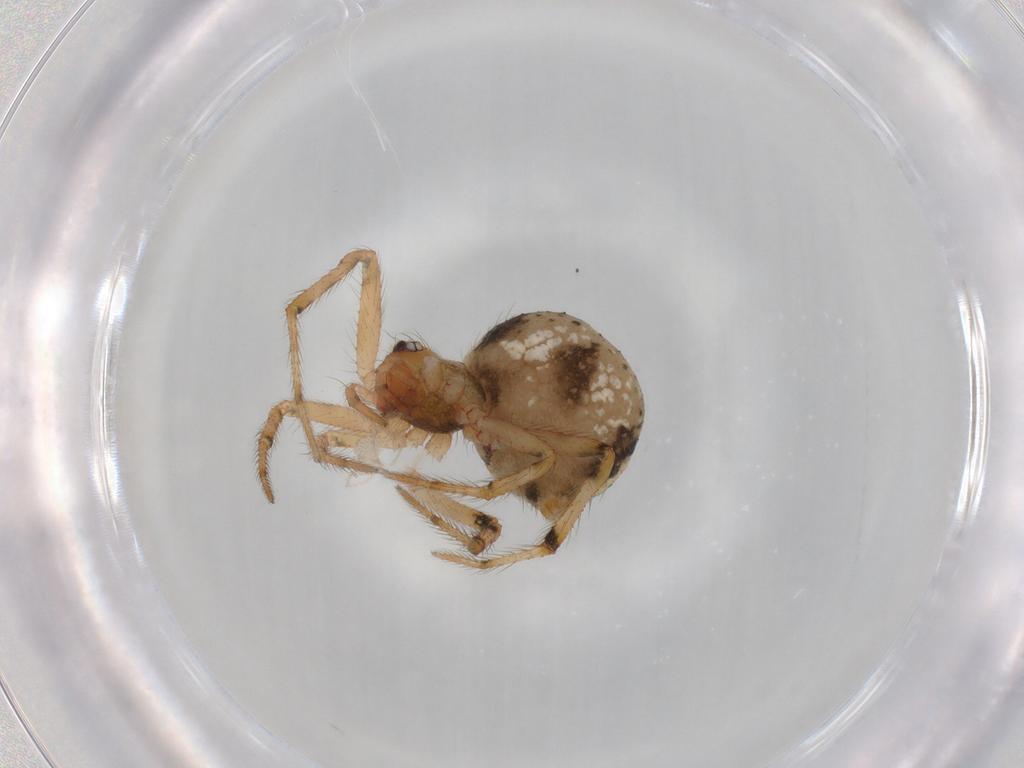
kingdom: Animalia
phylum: Arthropoda
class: Arachnida
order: Araneae
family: Theridiidae
